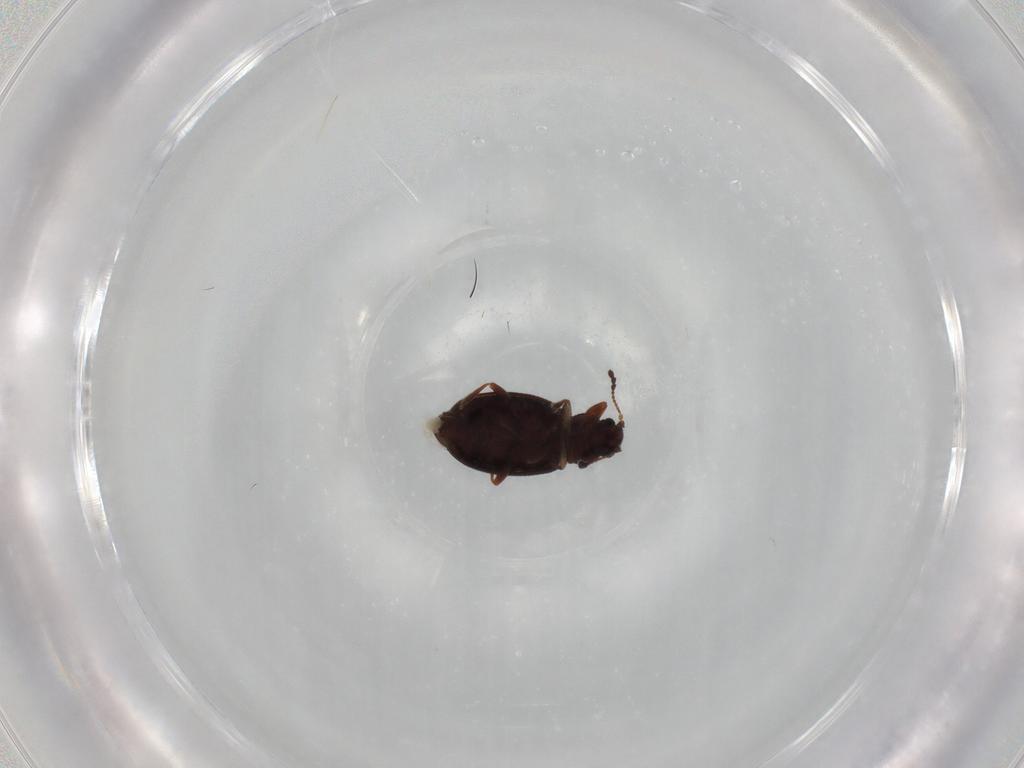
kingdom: Animalia
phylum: Arthropoda
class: Insecta
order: Coleoptera
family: Latridiidae
